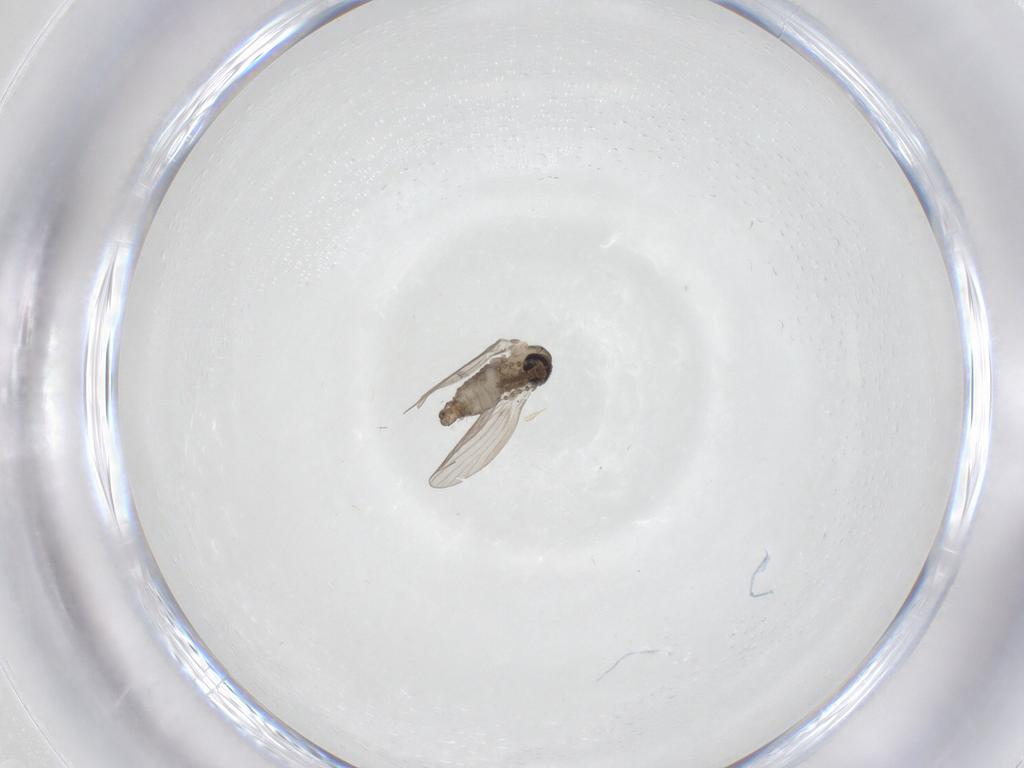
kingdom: Animalia
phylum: Arthropoda
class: Insecta
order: Diptera
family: Psychodidae
